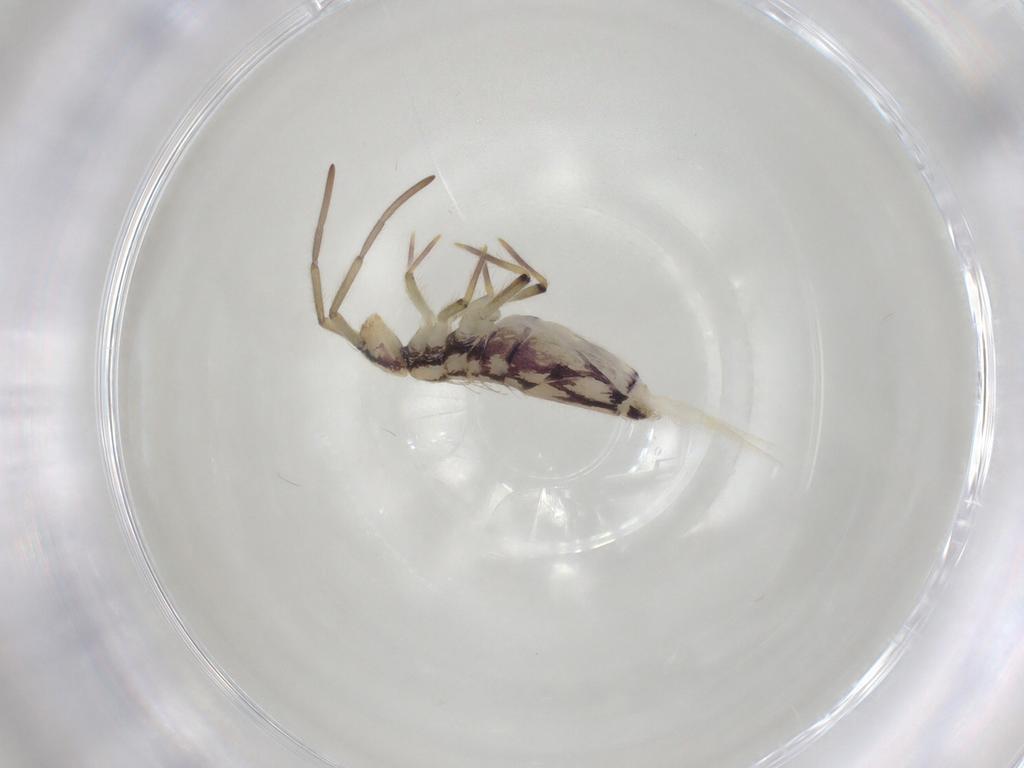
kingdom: Animalia
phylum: Arthropoda
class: Collembola
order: Entomobryomorpha
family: Entomobryidae
